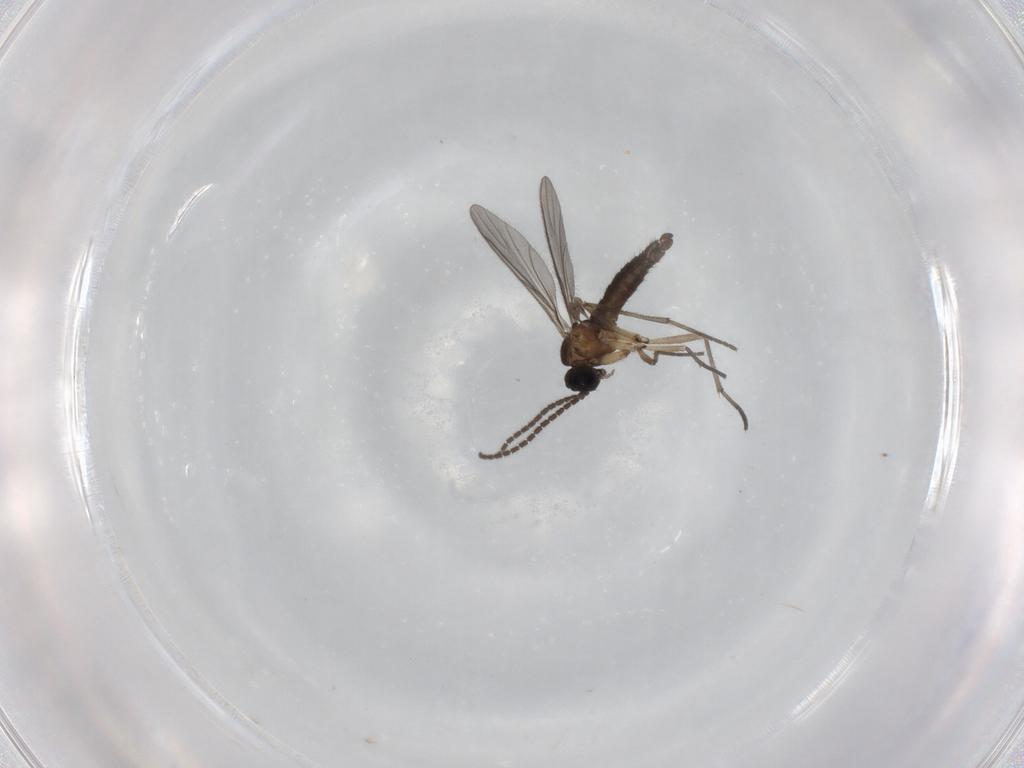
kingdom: Animalia
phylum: Arthropoda
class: Insecta
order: Diptera
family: Sciaridae
